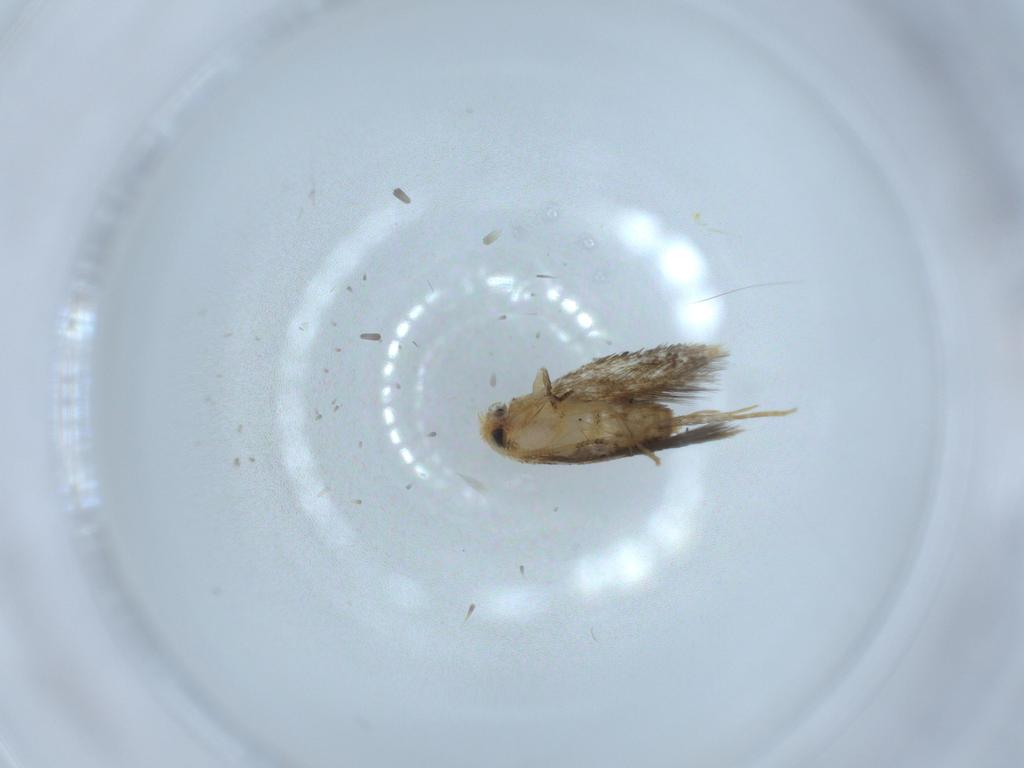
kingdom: Animalia
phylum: Arthropoda
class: Insecta
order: Lepidoptera
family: Nepticulidae
